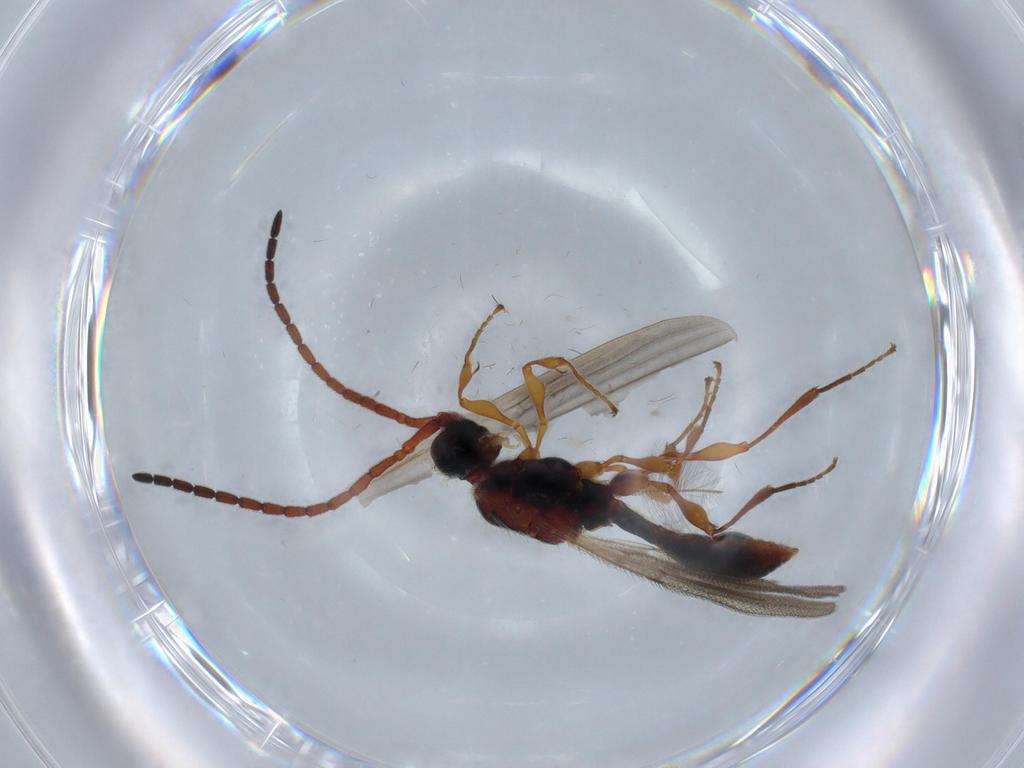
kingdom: Animalia
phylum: Arthropoda
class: Insecta
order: Hymenoptera
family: Diapriidae
